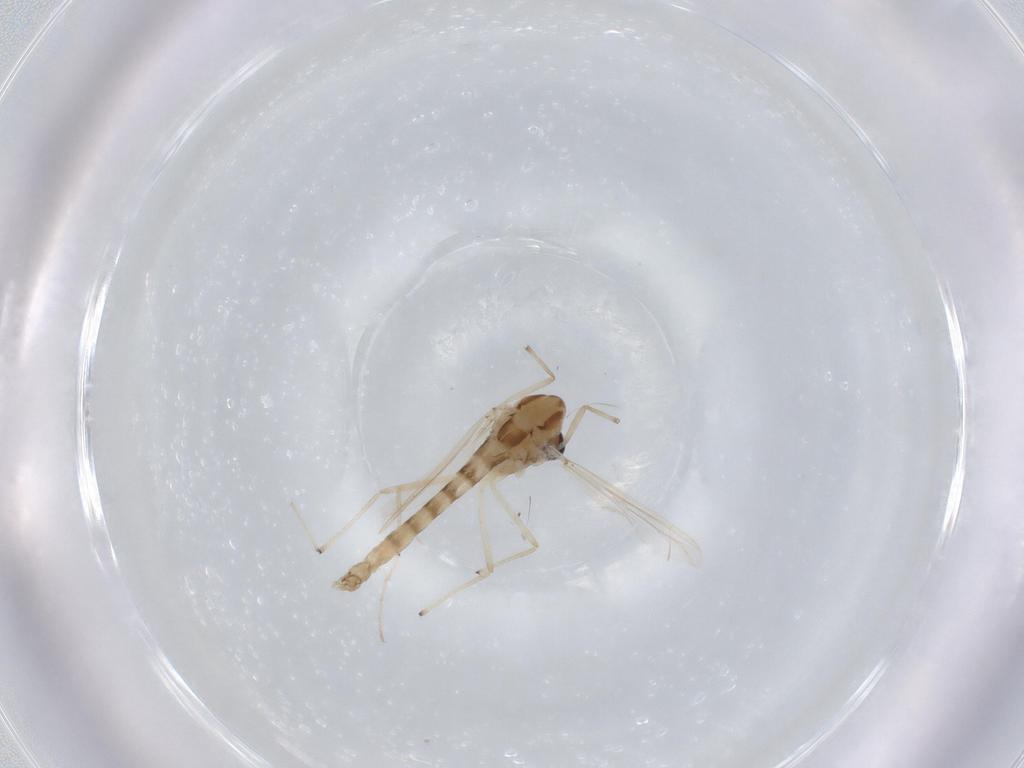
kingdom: Animalia
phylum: Arthropoda
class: Insecta
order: Diptera
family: Chironomidae
